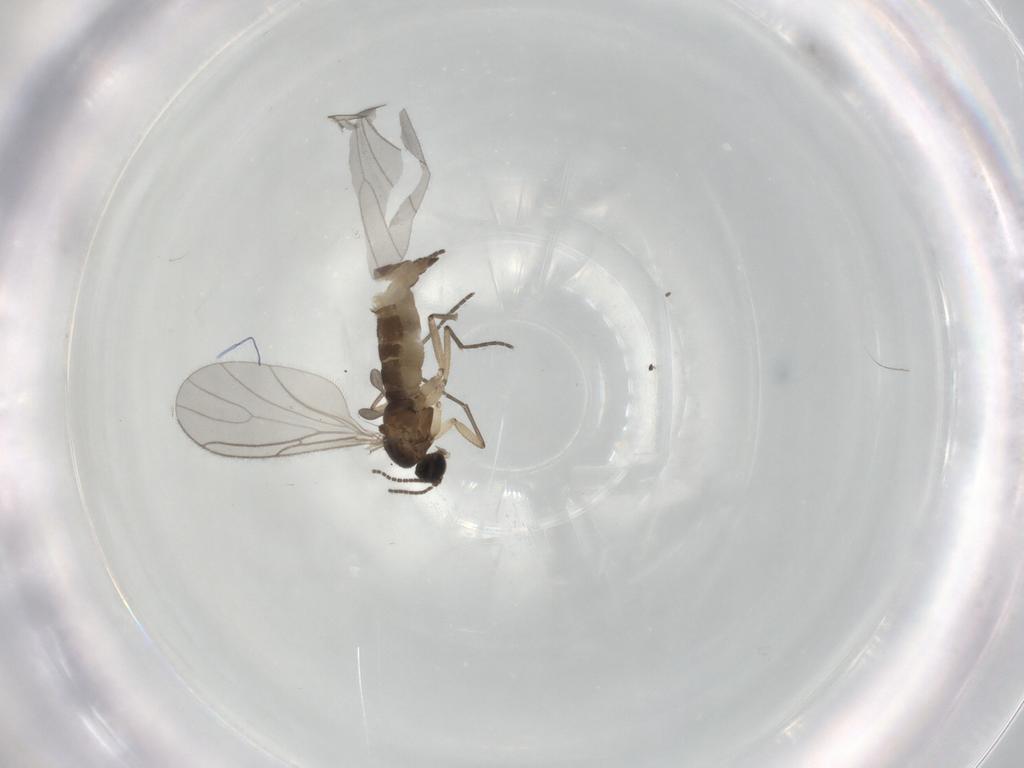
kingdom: Animalia
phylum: Arthropoda
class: Insecta
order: Diptera
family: Sciaridae
